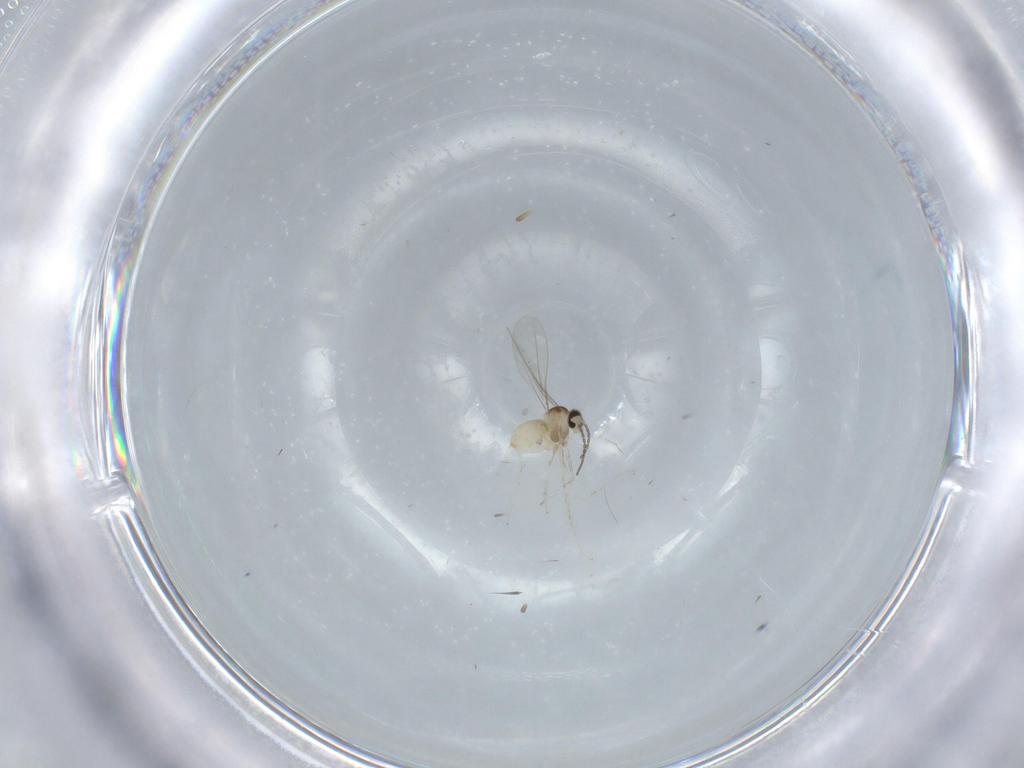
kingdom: Animalia
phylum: Arthropoda
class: Insecta
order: Diptera
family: Cecidomyiidae
